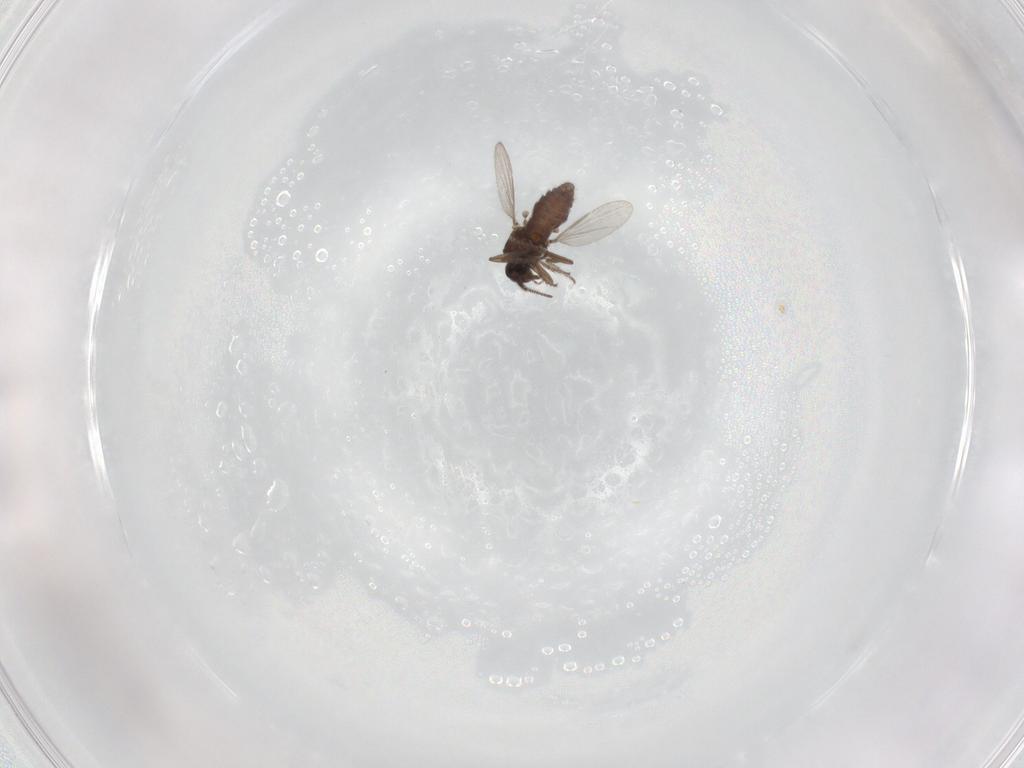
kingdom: Animalia
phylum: Arthropoda
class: Insecta
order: Diptera
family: Ceratopogonidae
